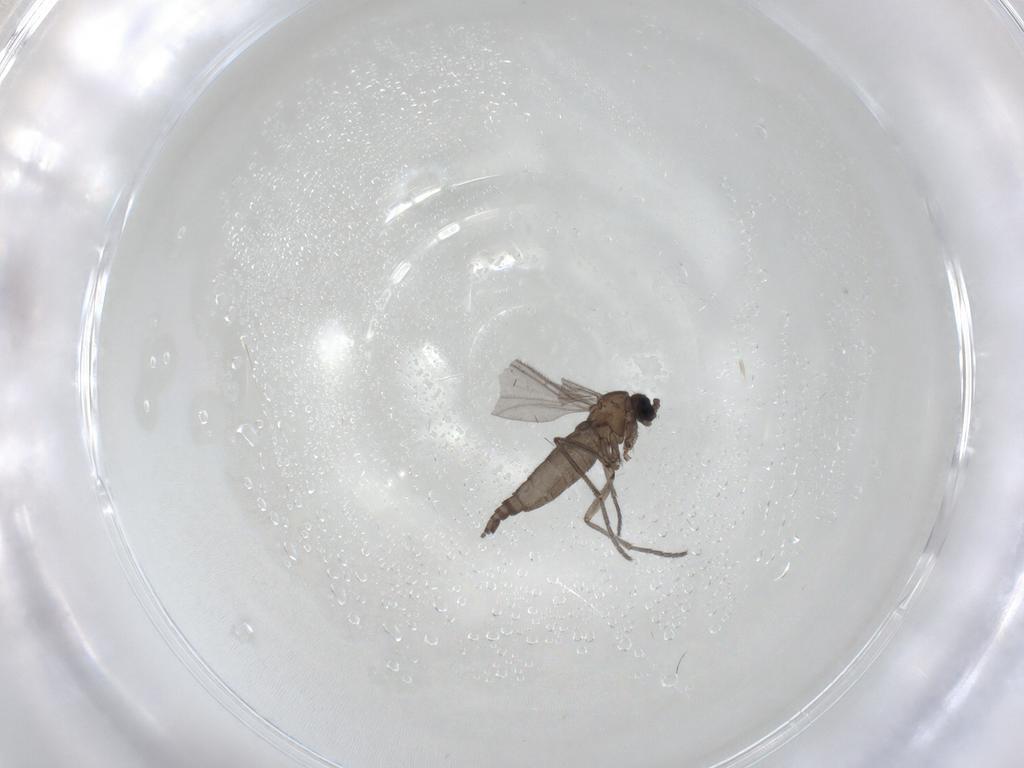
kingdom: Animalia
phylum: Arthropoda
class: Insecta
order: Diptera
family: Sciaridae
